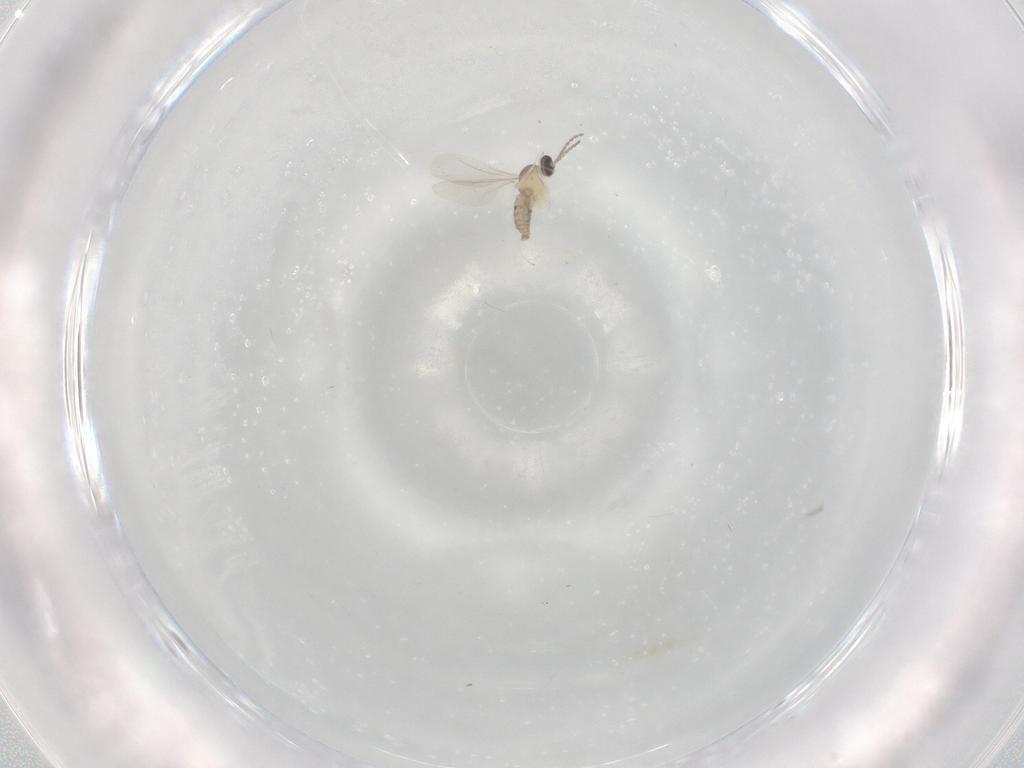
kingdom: Animalia
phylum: Arthropoda
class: Insecta
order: Diptera
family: Cecidomyiidae
